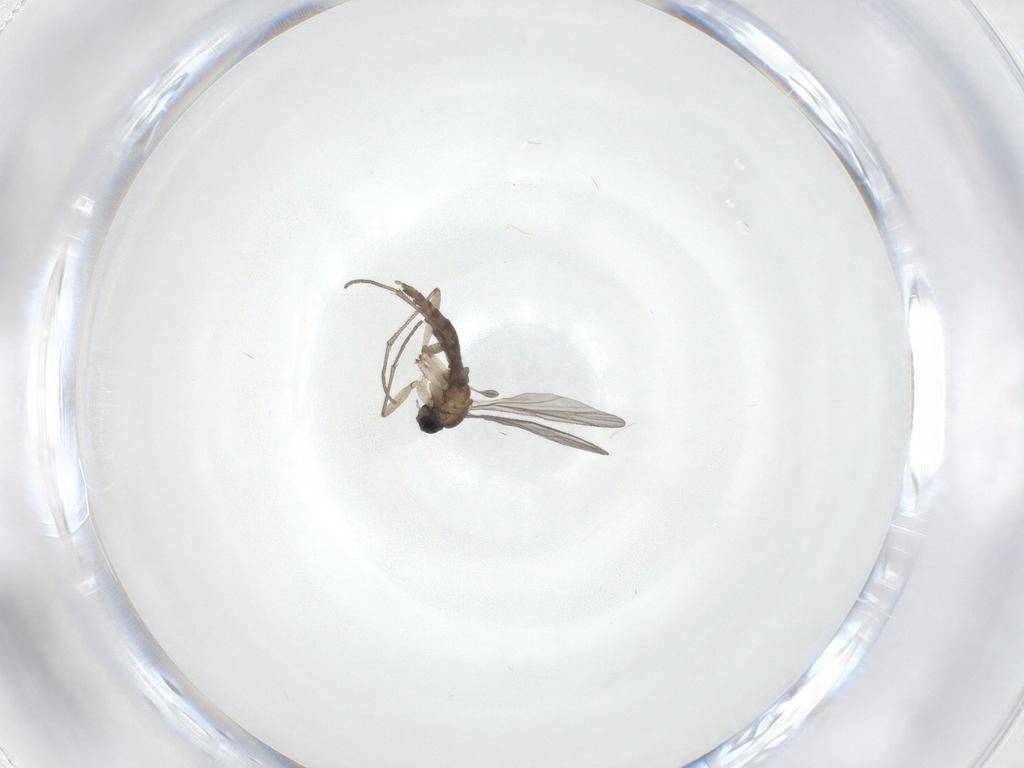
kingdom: Animalia
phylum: Arthropoda
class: Insecta
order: Diptera
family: Sciaridae
